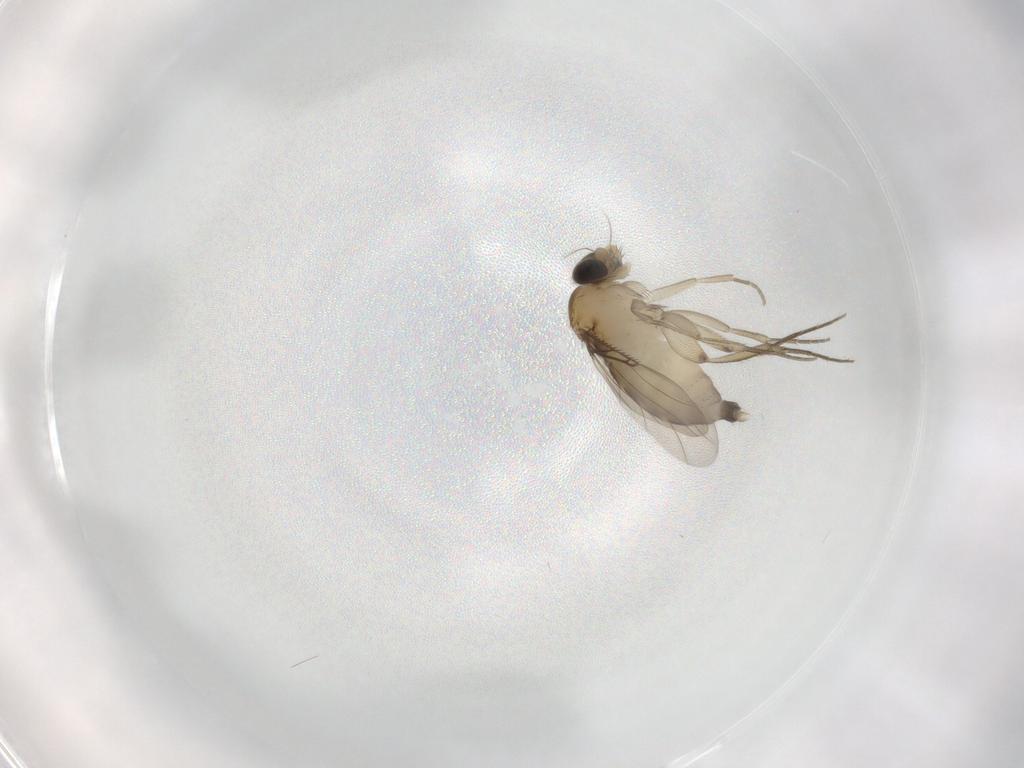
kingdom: Animalia
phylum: Arthropoda
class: Insecta
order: Diptera
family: Phoridae
